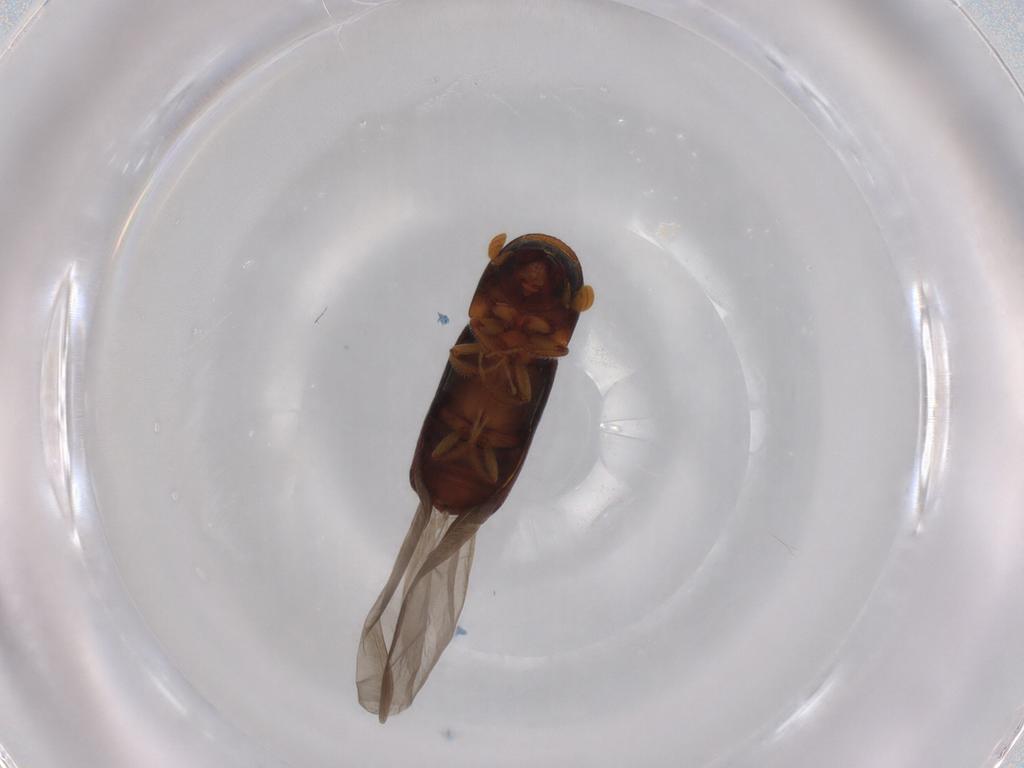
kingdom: Animalia
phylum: Arthropoda
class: Insecta
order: Coleoptera
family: Curculionidae
